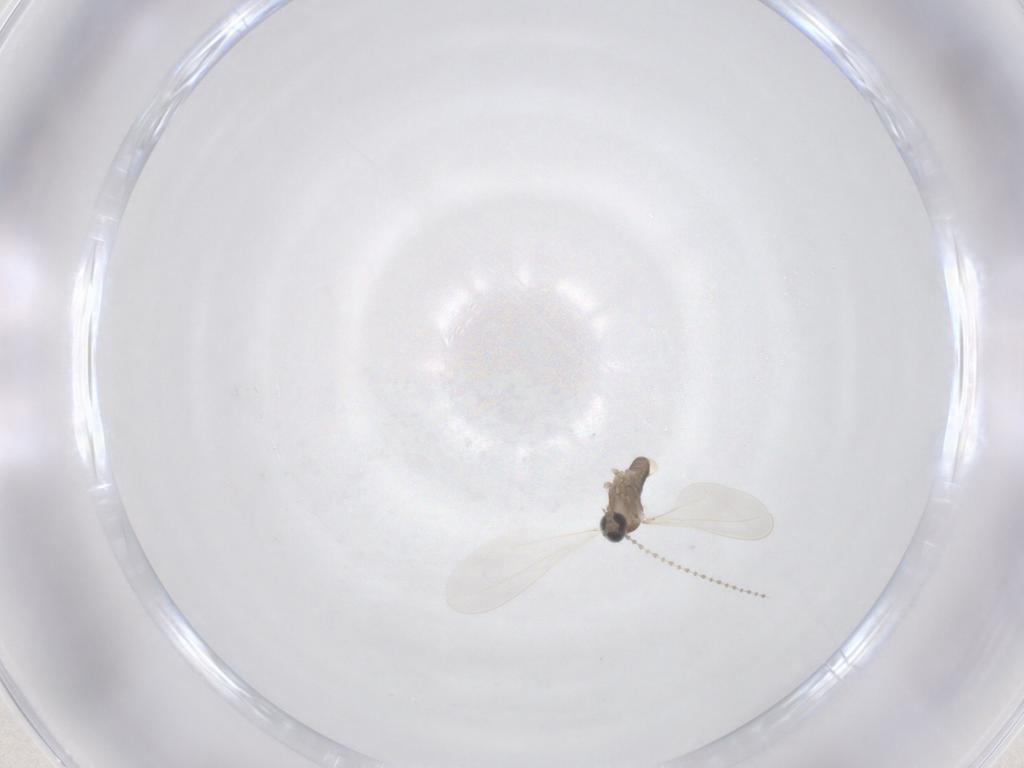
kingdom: Animalia
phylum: Arthropoda
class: Insecta
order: Diptera
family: Cecidomyiidae
